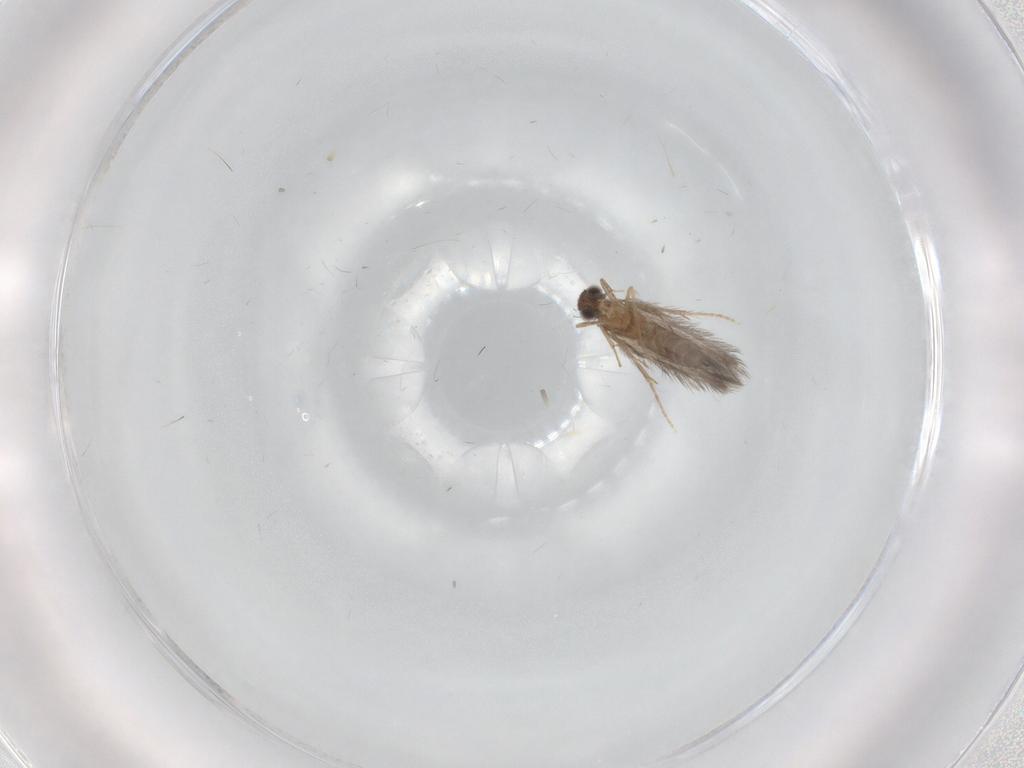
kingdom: Animalia
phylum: Arthropoda
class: Insecta
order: Trichoptera
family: Hydroptilidae
